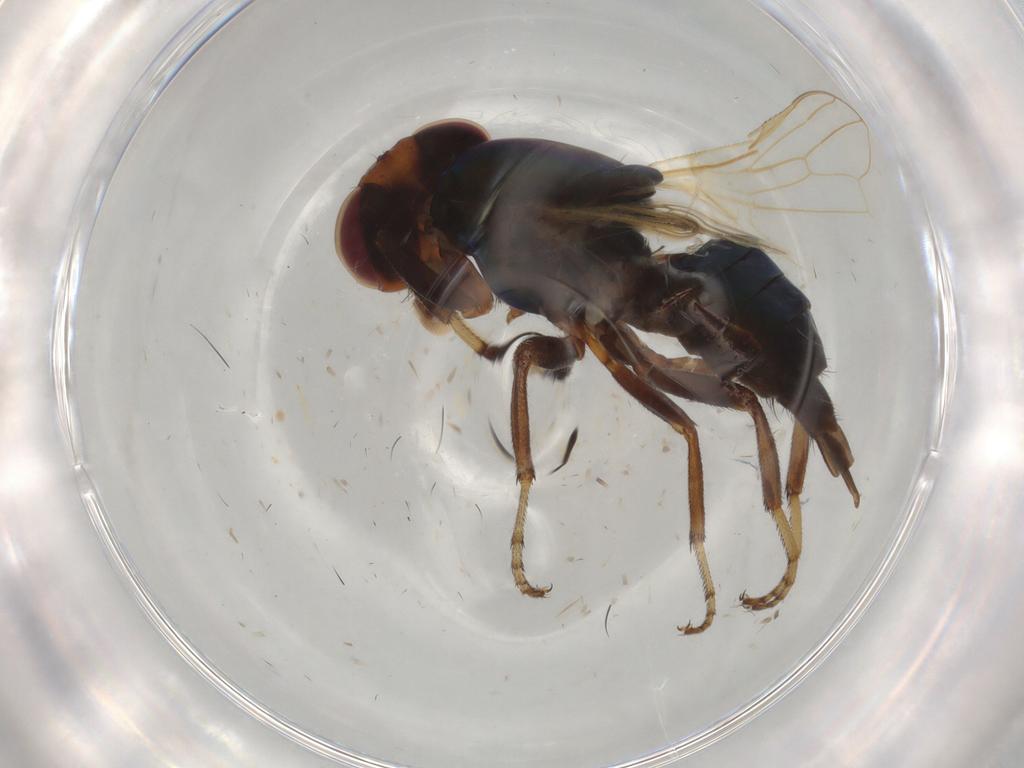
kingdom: Animalia
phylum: Arthropoda
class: Insecta
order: Diptera
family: Ulidiidae
